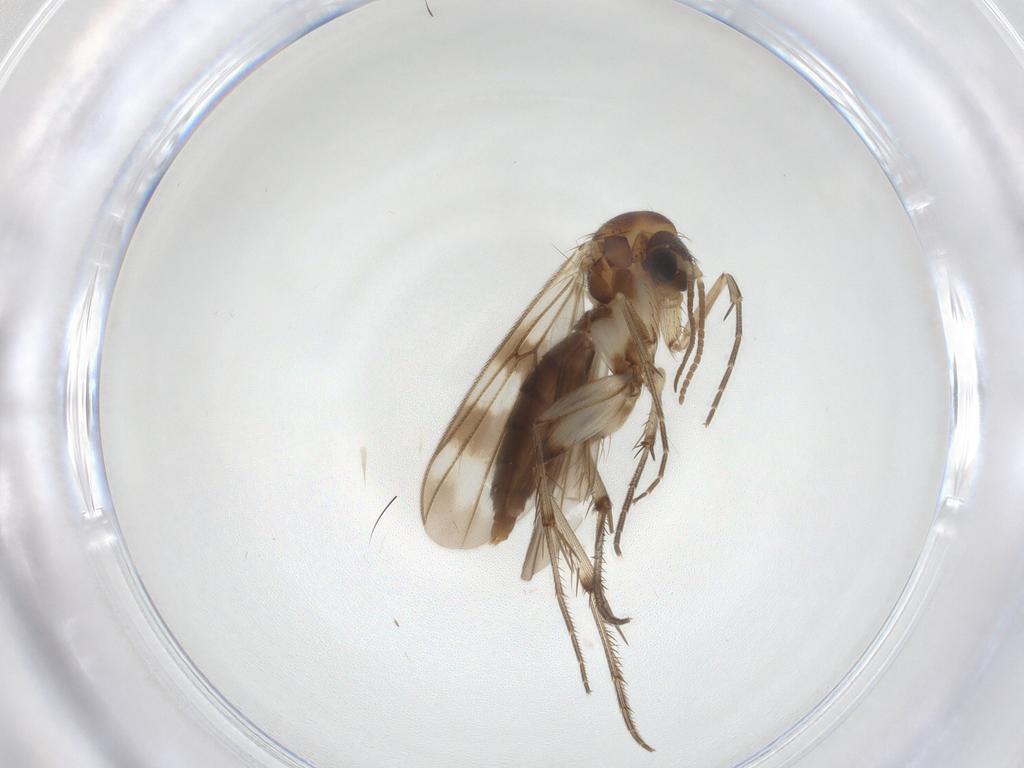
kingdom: Animalia
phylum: Arthropoda
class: Insecta
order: Diptera
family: Mycetophilidae
